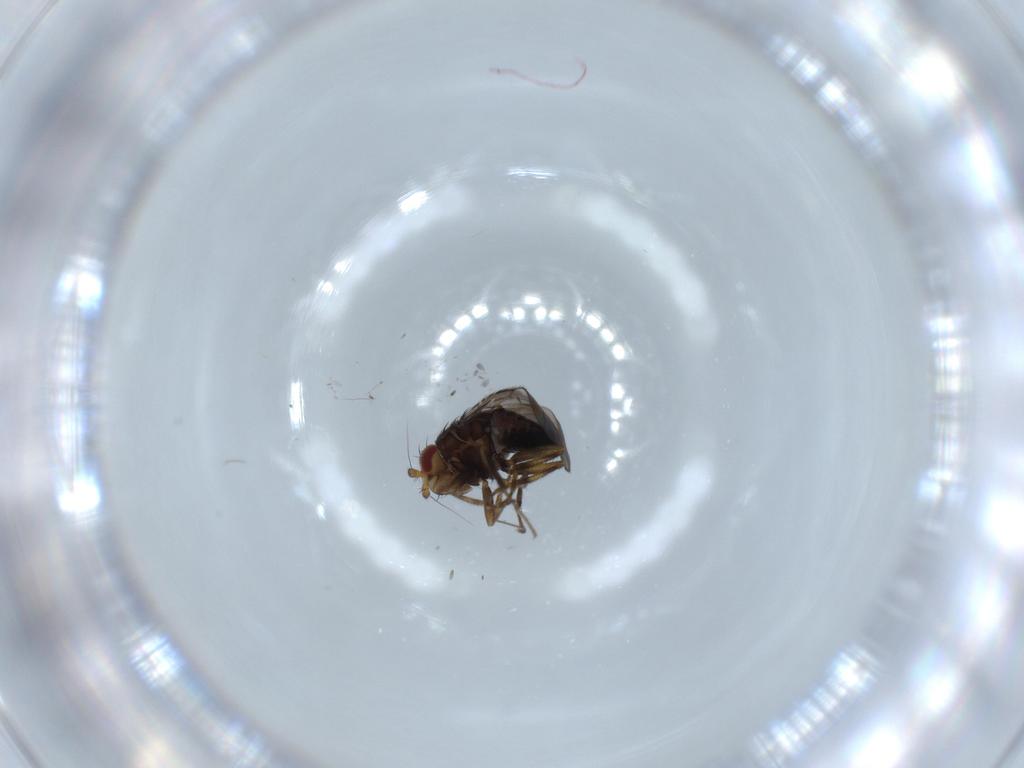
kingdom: Animalia
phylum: Arthropoda
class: Insecta
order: Diptera
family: Chironomidae
